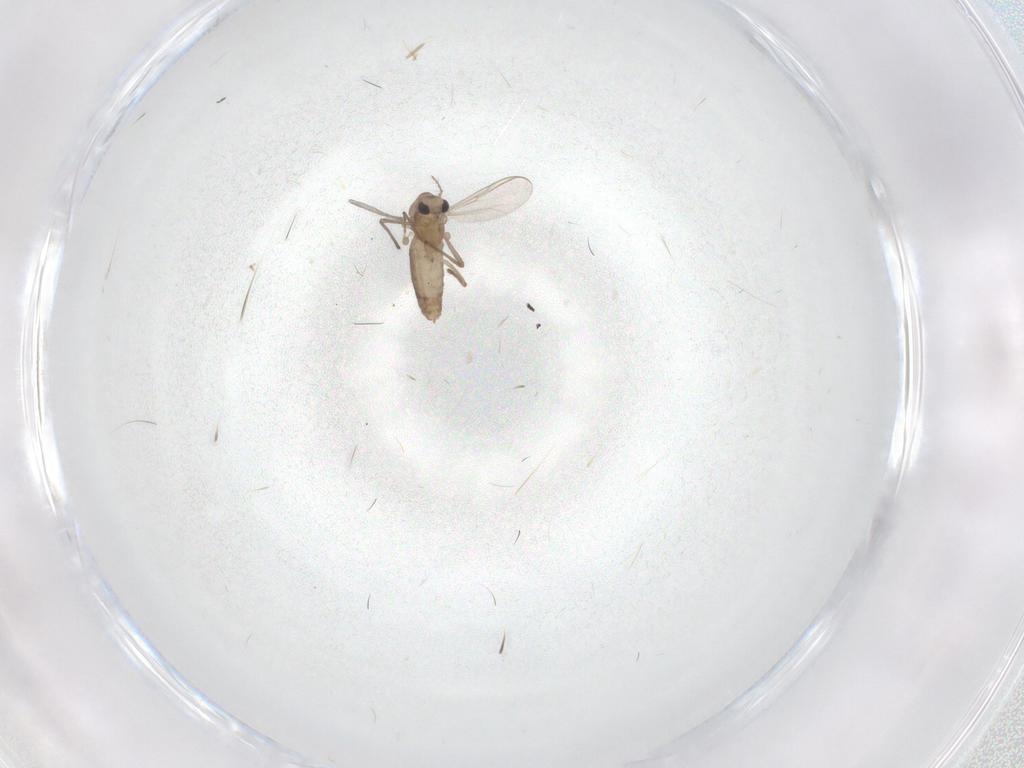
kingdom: Animalia
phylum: Arthropoda
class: Insecta
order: Diptera
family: Chironomidae
